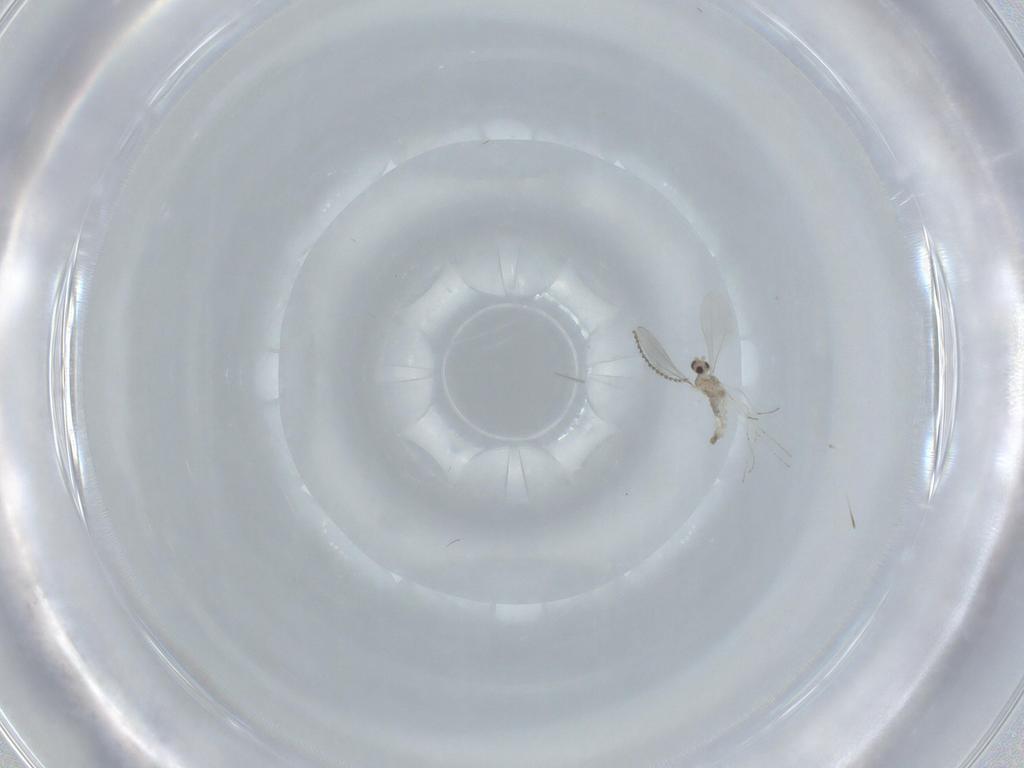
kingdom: Animalia
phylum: Arthropoda
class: Insecta
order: Diptera
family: Cecidomyiidae
